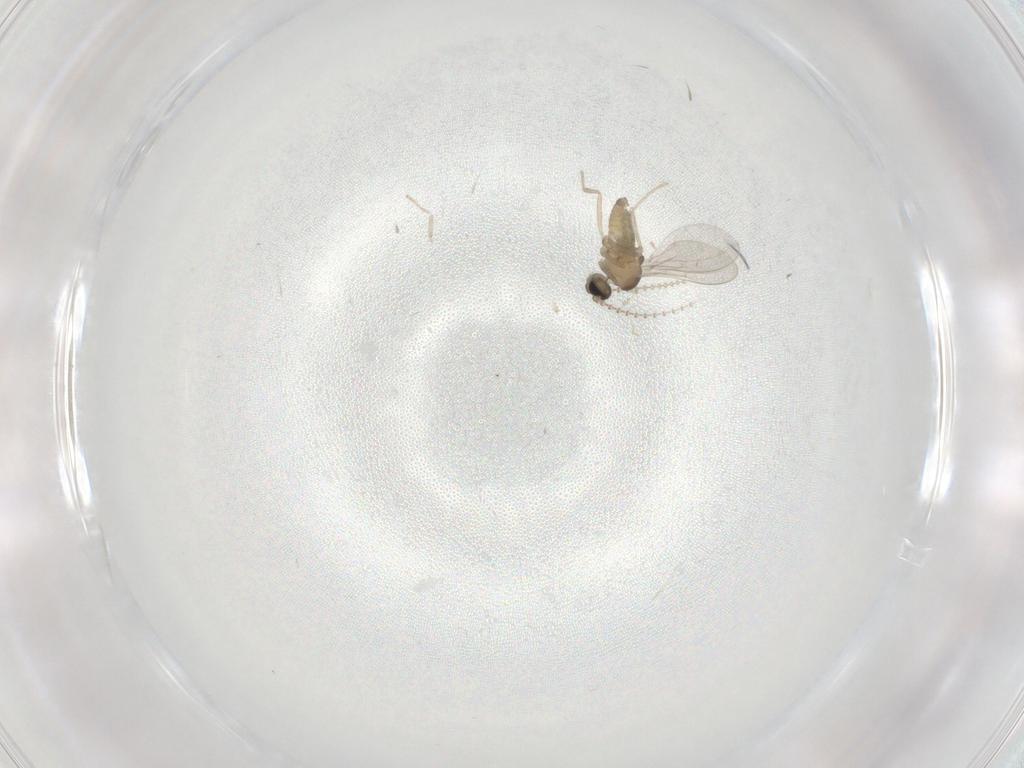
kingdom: Animalia
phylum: Arthropoda
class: Insecta
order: Diptera
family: Cecidomyiidae
